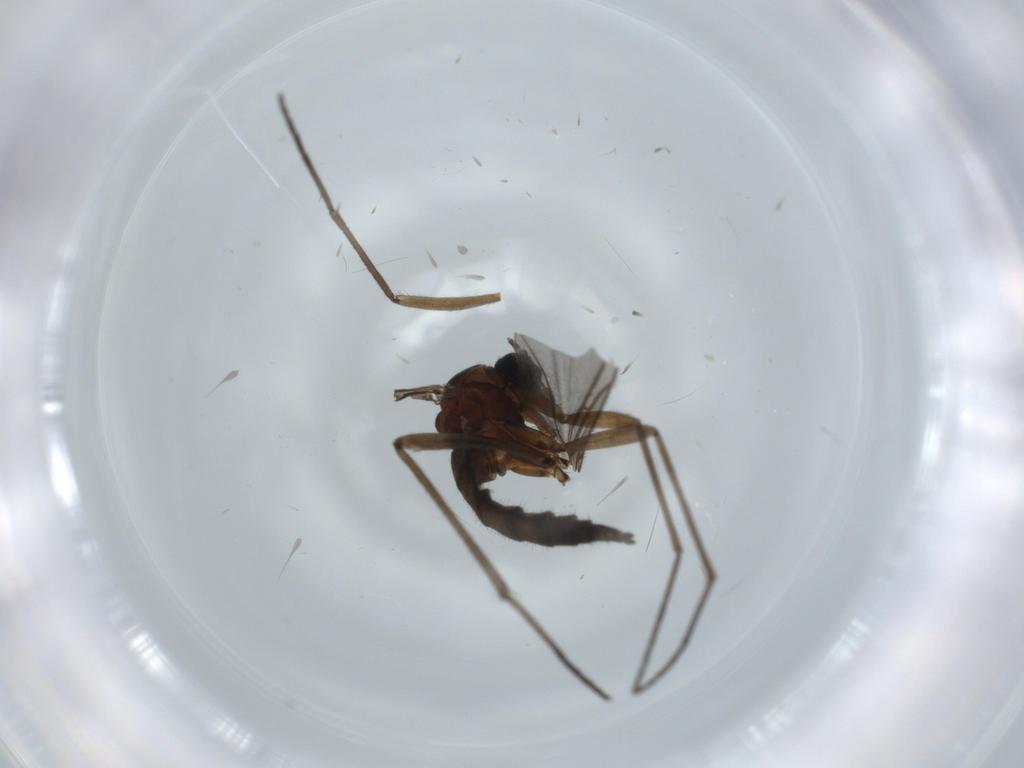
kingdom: Animalia
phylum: Arthropoda
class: Insecta
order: Diptera
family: Sciaridae
